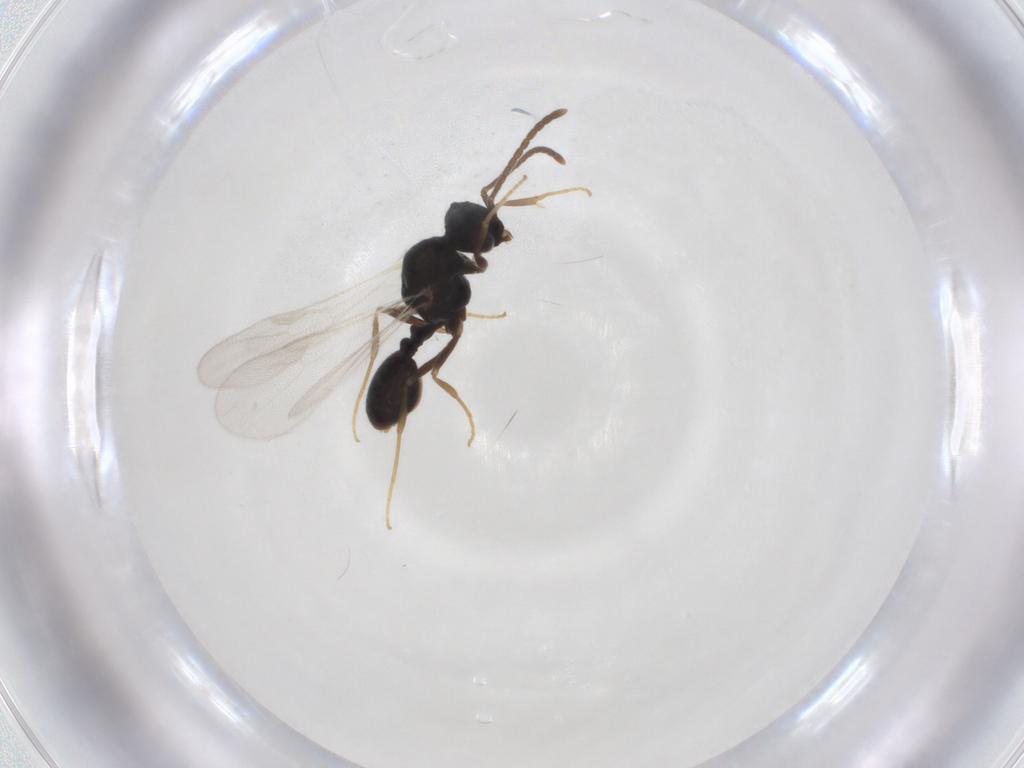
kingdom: Animalia
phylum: Arthropoda
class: Insecta
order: Hymenoptera
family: Formicidae
